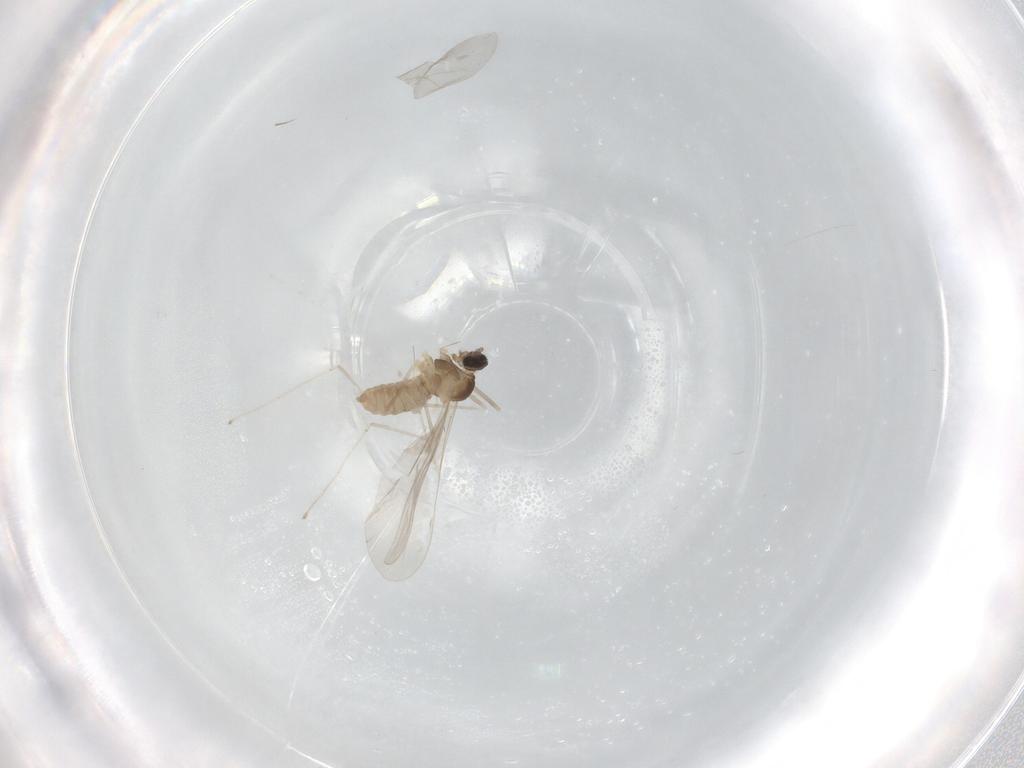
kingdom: Animalia
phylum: Arthropoda
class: Insecta
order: Diptera
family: Cecidomyiidae
